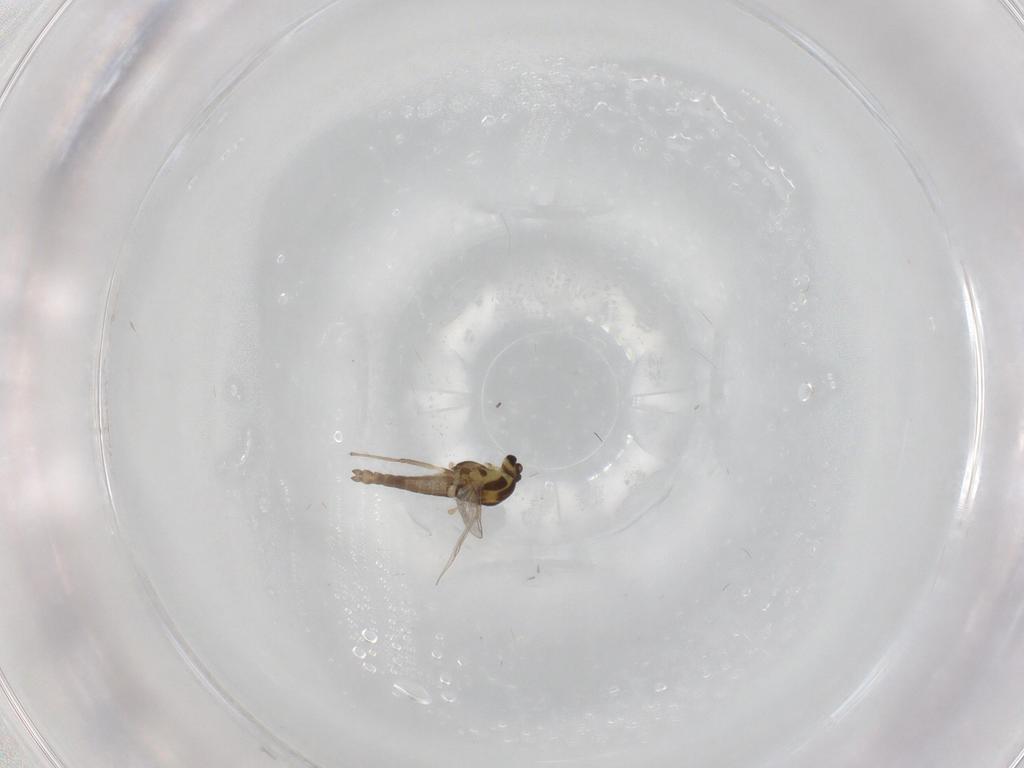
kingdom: Animalia
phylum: Arthropoda
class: Insecta
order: Diptera
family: Chironomidae
